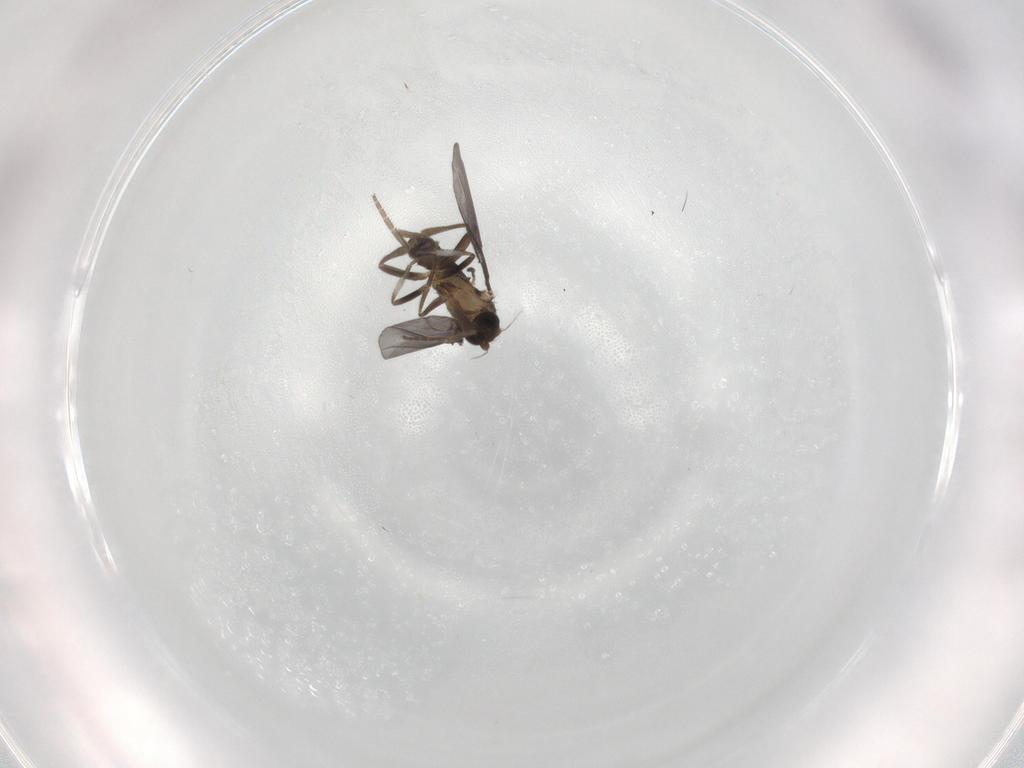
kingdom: Animalia
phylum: Arthropoda
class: Insecta
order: Diptera
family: Phoridae
